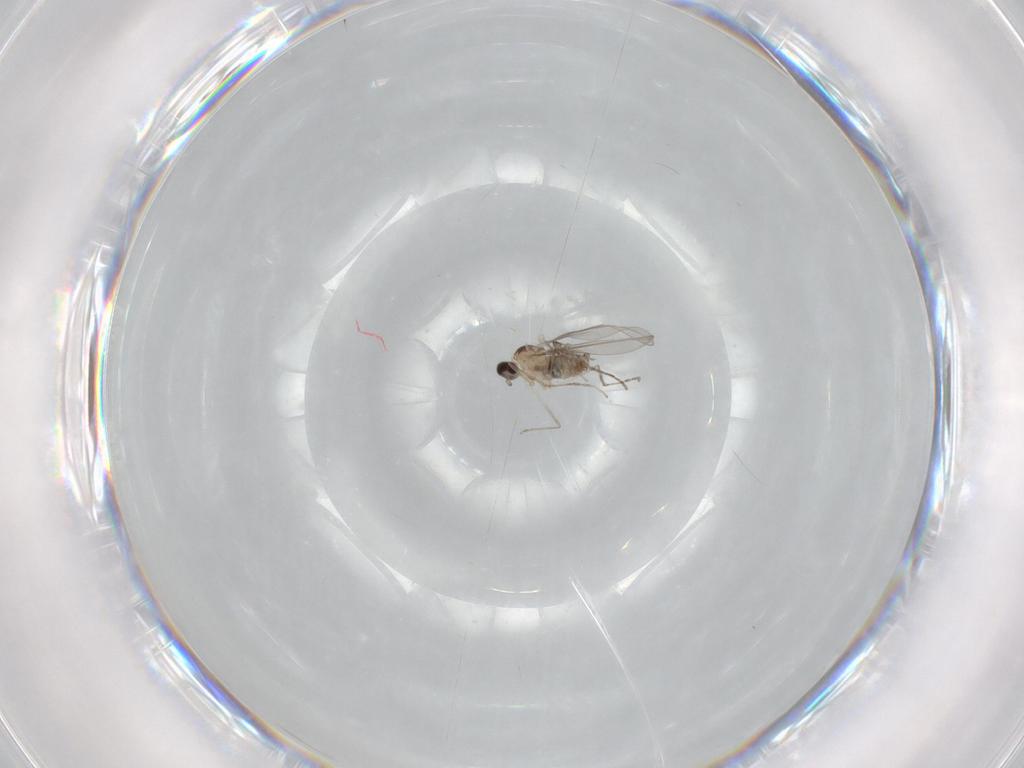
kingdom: Animalia
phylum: Arthropoda
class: Insecta
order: Diptera
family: Cecidomyiidae
